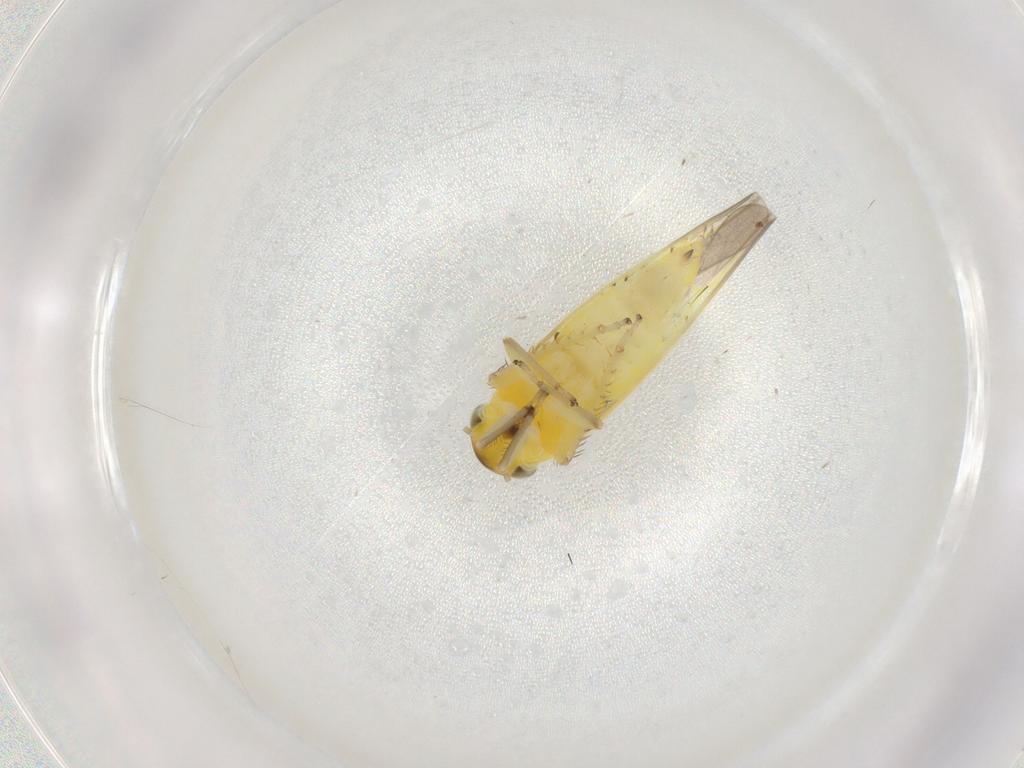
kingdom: Animalia
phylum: Arthropoda
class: Insecta
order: Hemiptera
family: Cicadellidae
